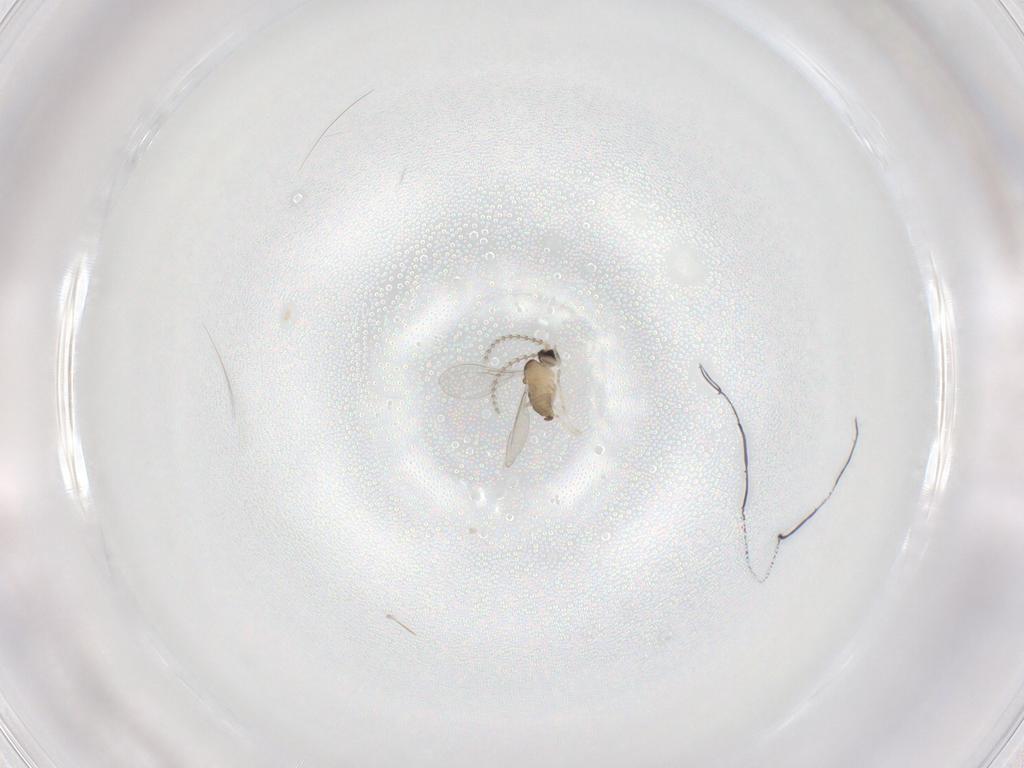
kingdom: Animalia
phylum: Arthropoda
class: Insecta
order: Diptera
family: Cecidomyiidae
